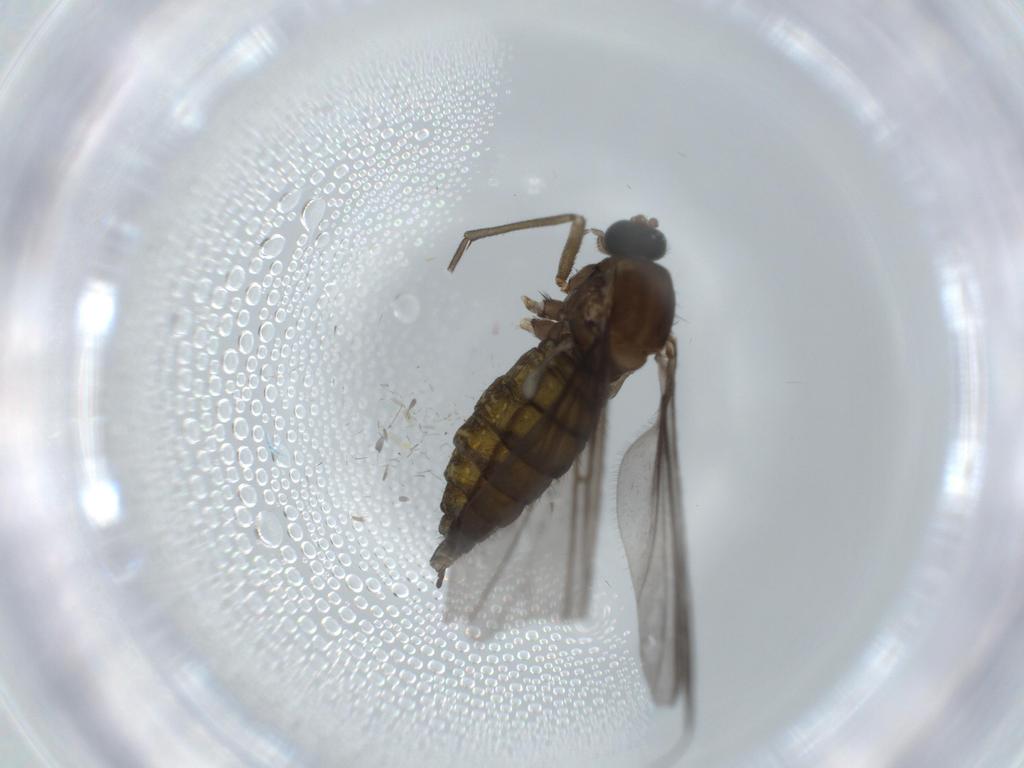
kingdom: Animalia
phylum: Arthropoda
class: Insecta
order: Diptera
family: Sciaridae
